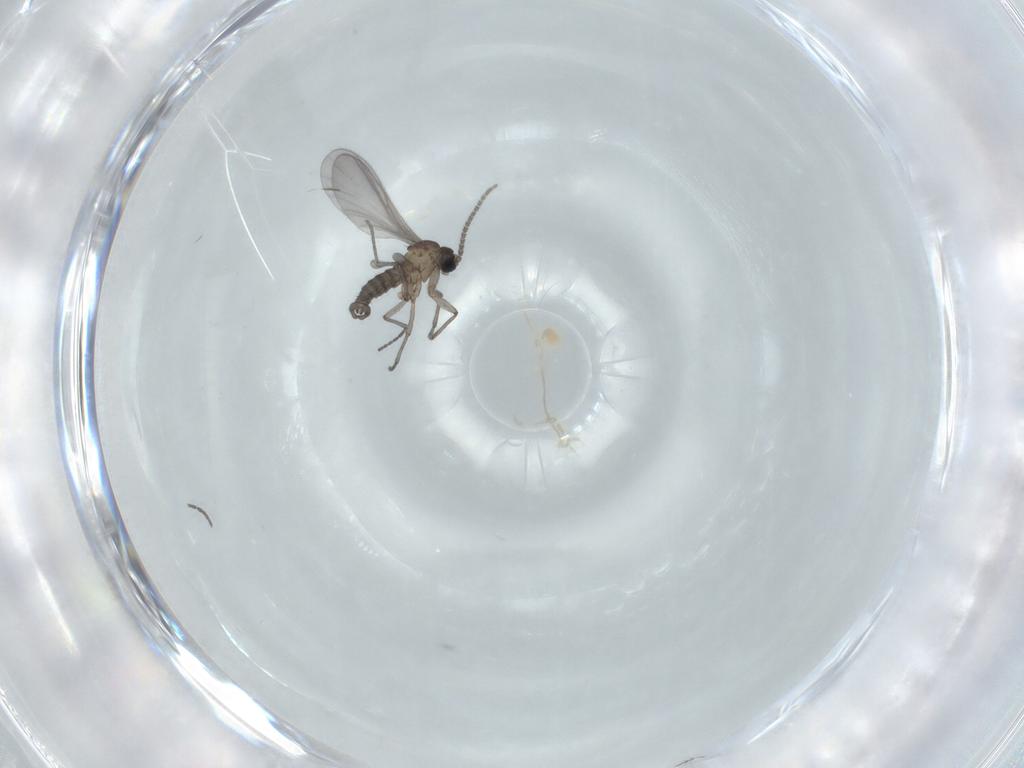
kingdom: Animalia
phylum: Arthropoda
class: Insecta
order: Diptera
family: Sciaridae
